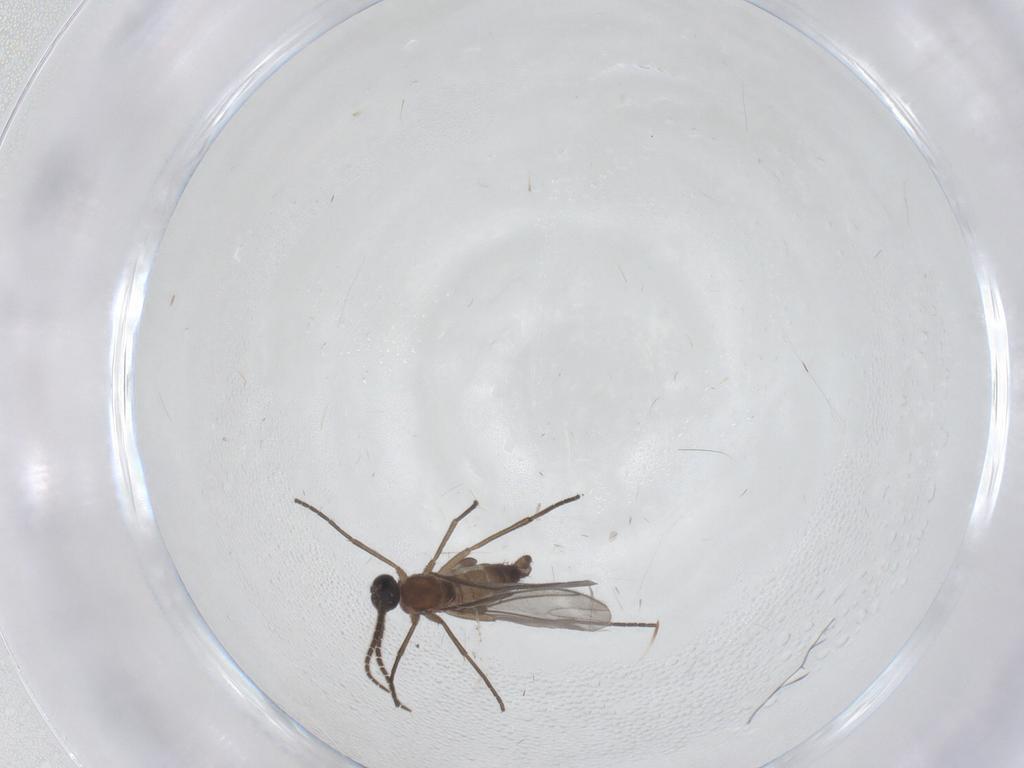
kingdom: Animalia
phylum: Arthropoda
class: Insecta
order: Diptera
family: Sciaridae
